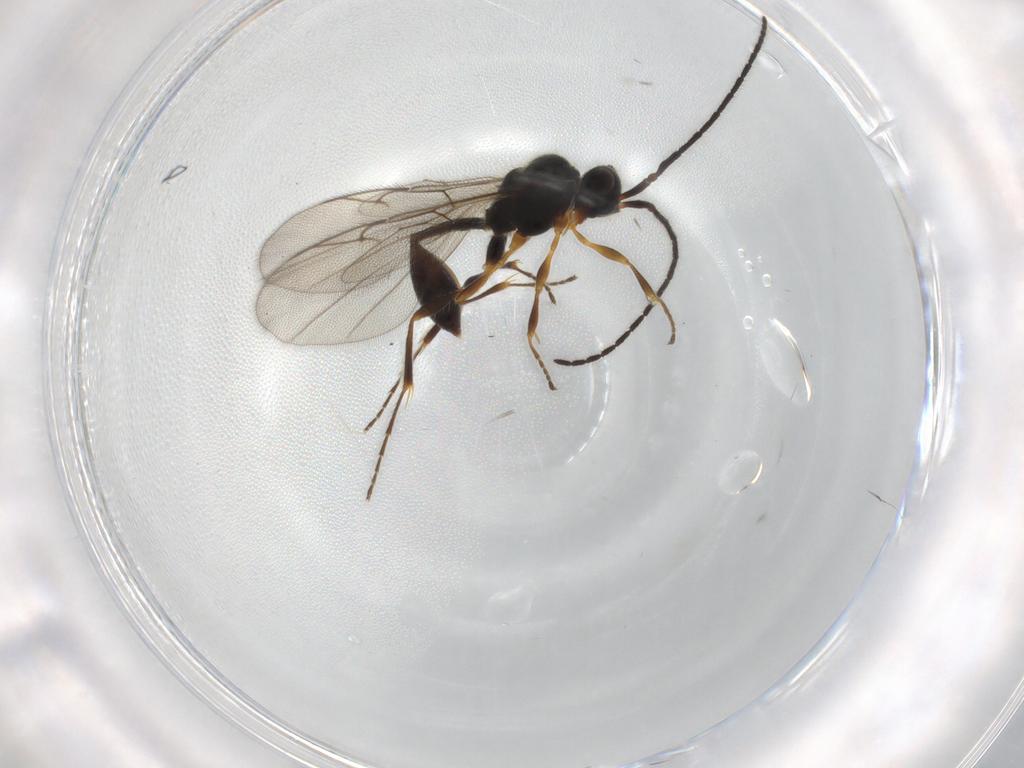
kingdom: Animalia
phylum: Arthropoda
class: Insecta
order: Hymenoptera
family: Diapriidae
